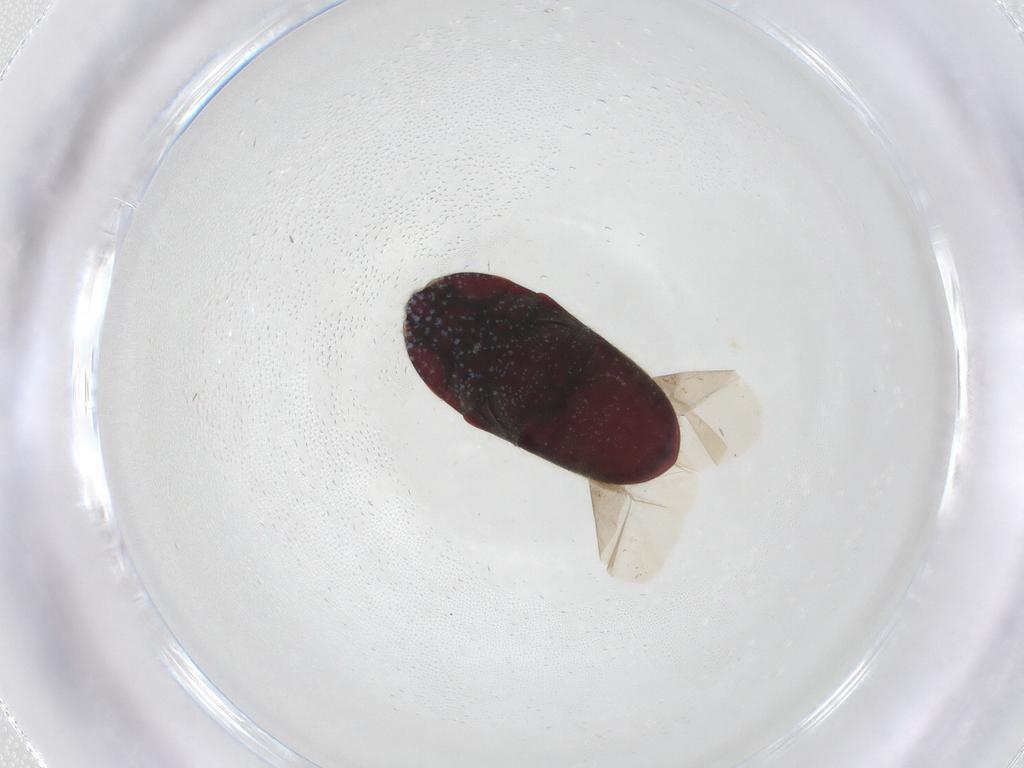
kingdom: Animalia
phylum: Arthropoda
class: Insecta
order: Coleoptera
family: Throscidae
